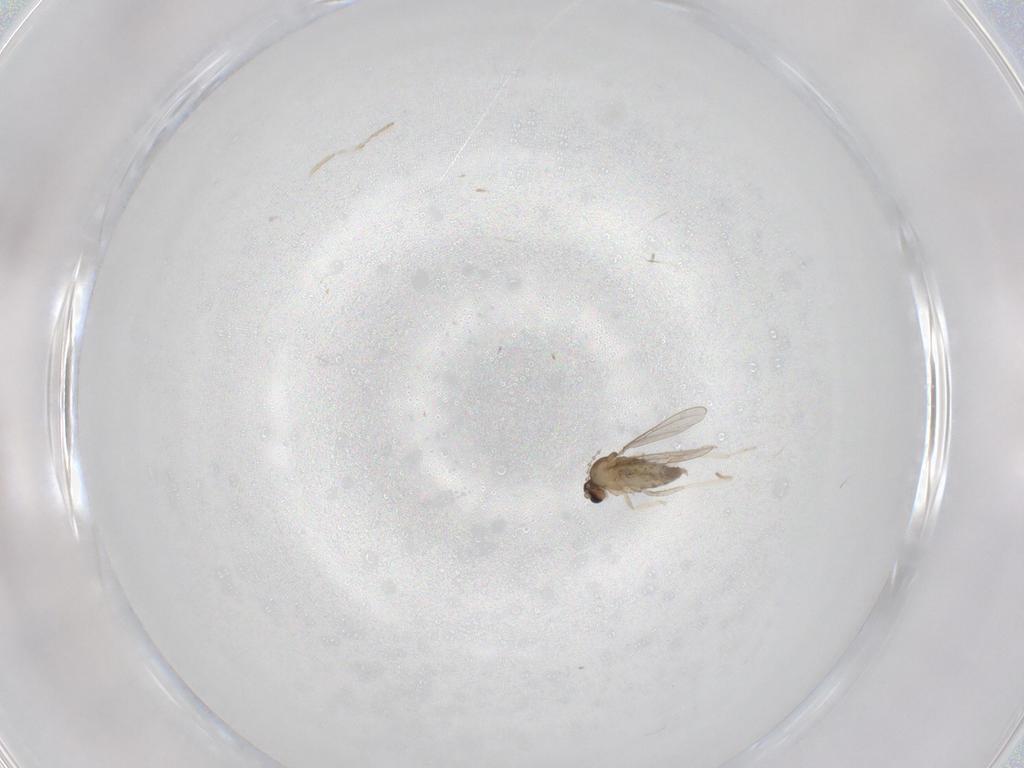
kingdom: Animalia
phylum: Arthropoda
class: Insecta
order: Diptera
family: Cecidomyiidae
